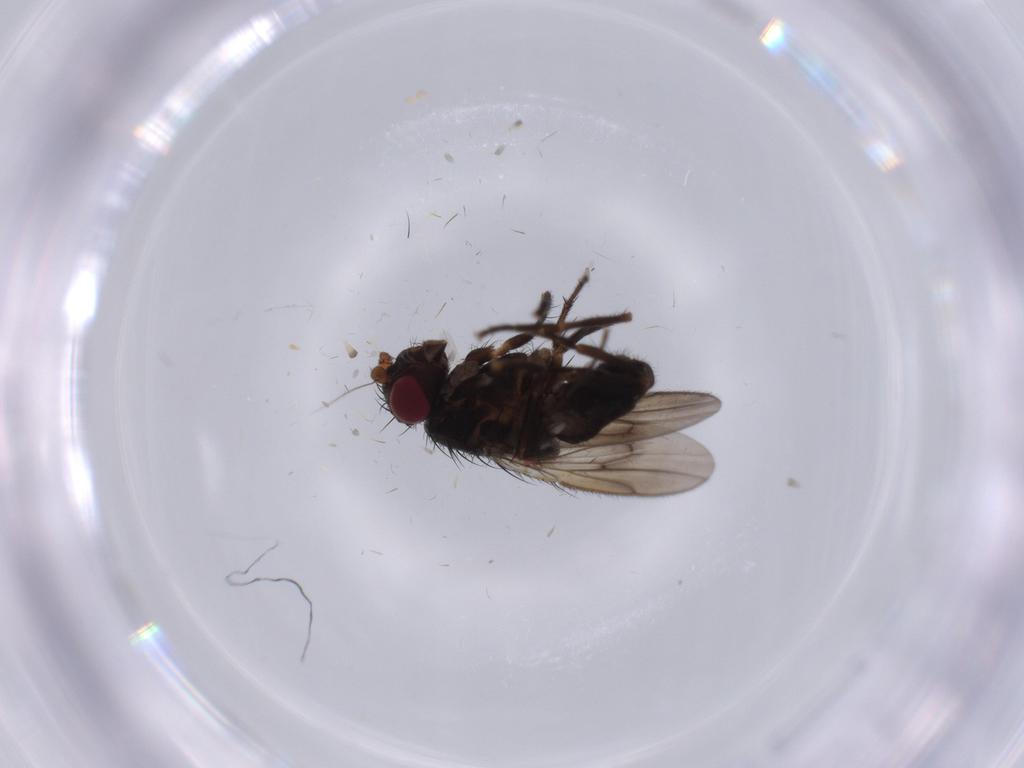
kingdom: Animalia
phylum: Arthropoda
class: Insecta
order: Diptera
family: Drosophilidae
